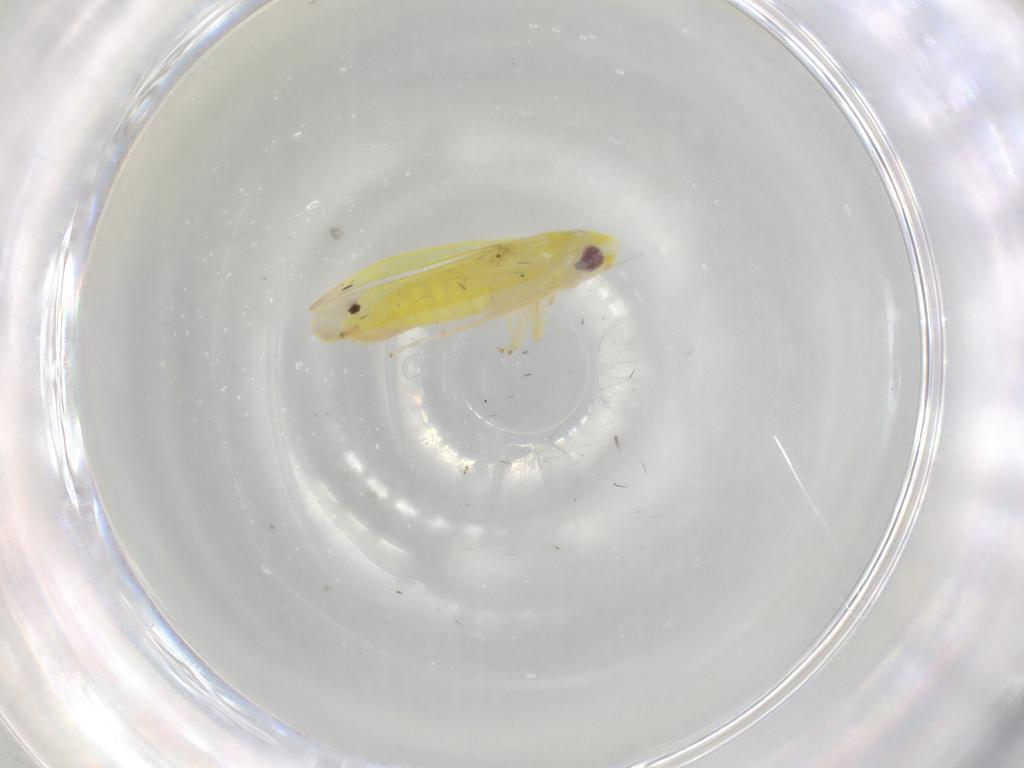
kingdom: Animalia
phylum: Arthropoda
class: Insecta
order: Hemiptera
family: Cicadellidae
